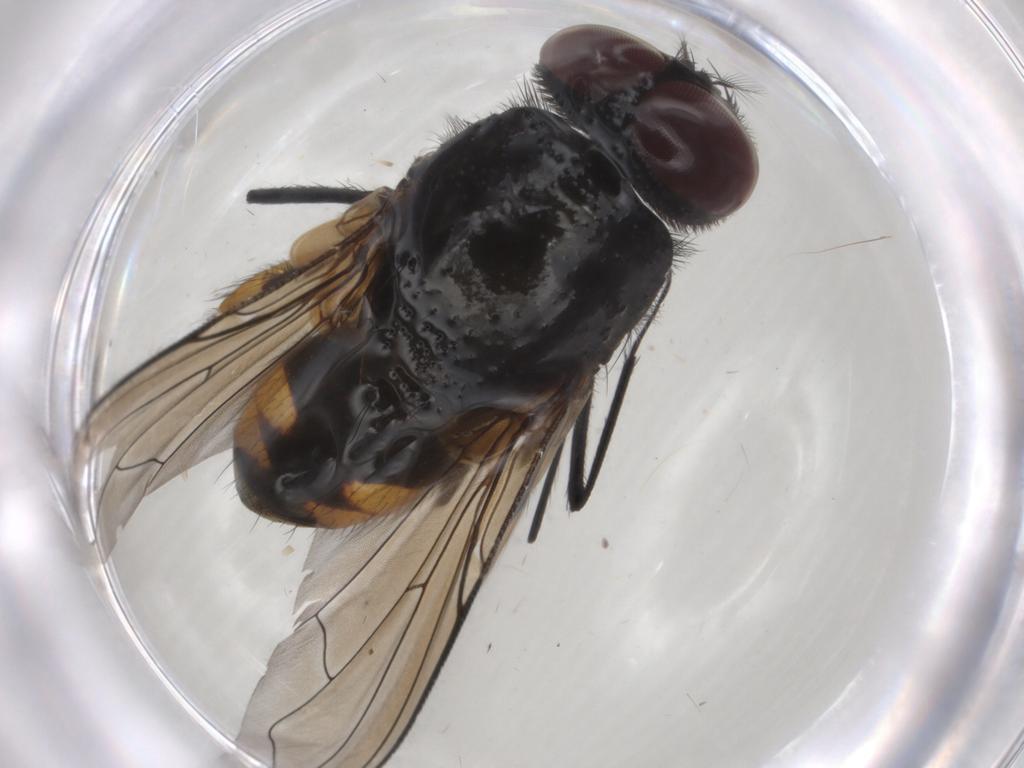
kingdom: Animalia
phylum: Arthropoda
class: Insecta
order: Diptera
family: Muscidae
